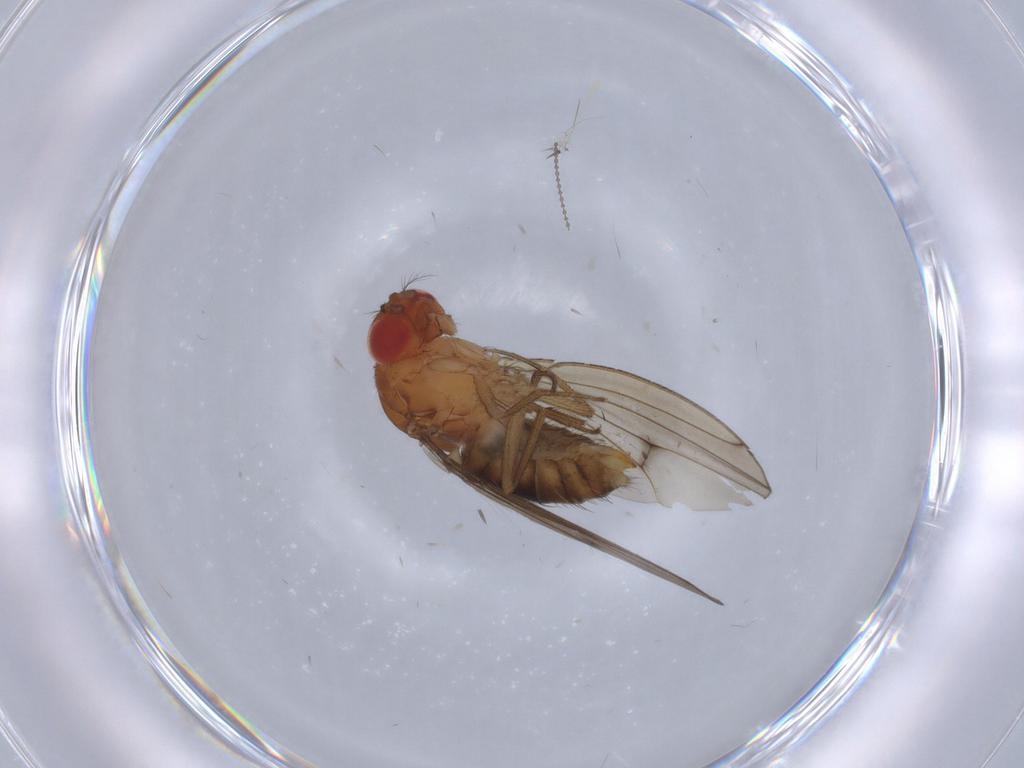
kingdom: Animalia
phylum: Arthropoda
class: Insecta
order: Diptera
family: Drosophilidae
